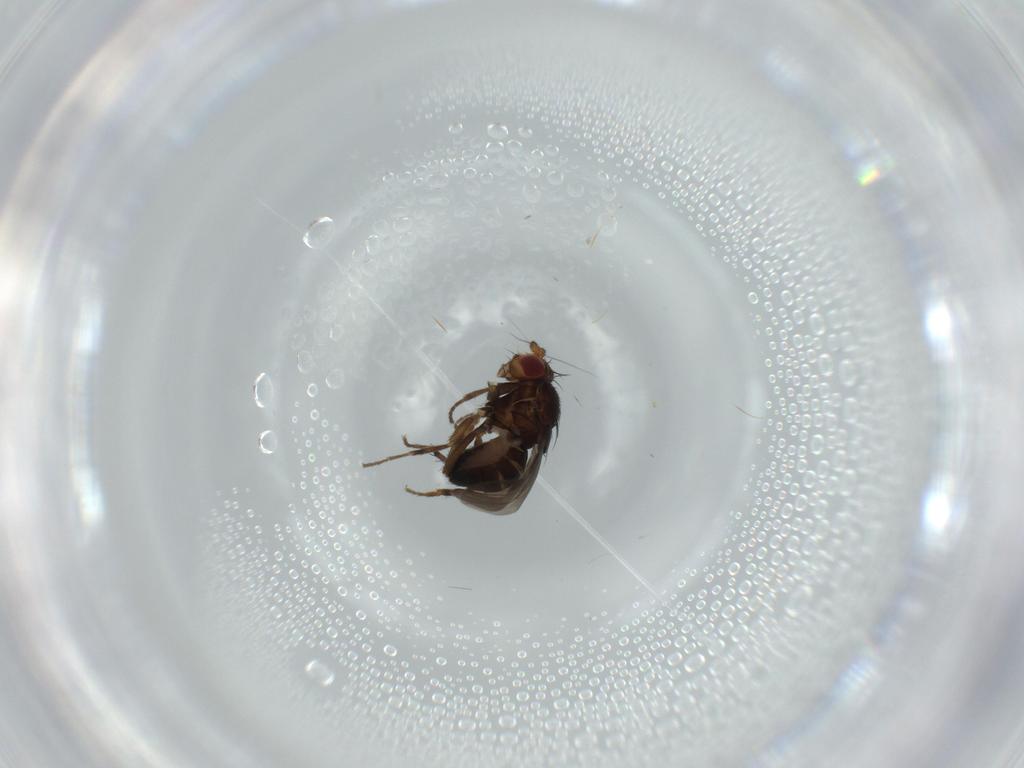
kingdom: Animalia
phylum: Arthropoda
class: Insecta
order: Diptera
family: Sphaeroceridae
